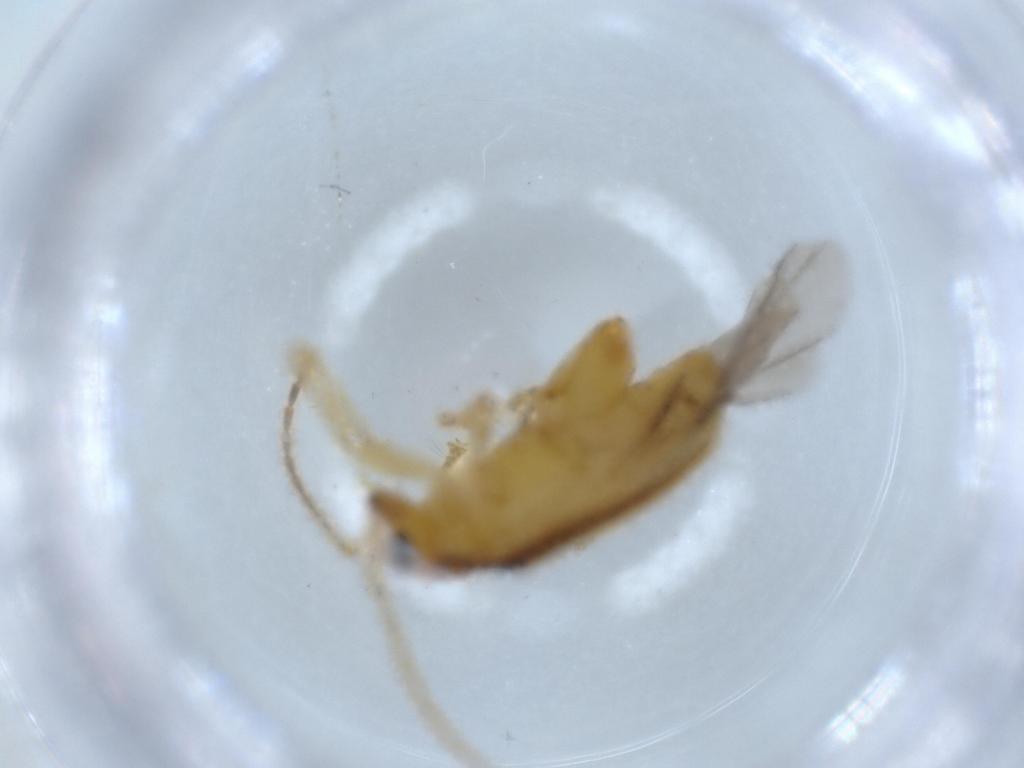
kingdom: Animalia
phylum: Arthropoda
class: Insecta
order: Coleoptera
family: Chrysomelidae
